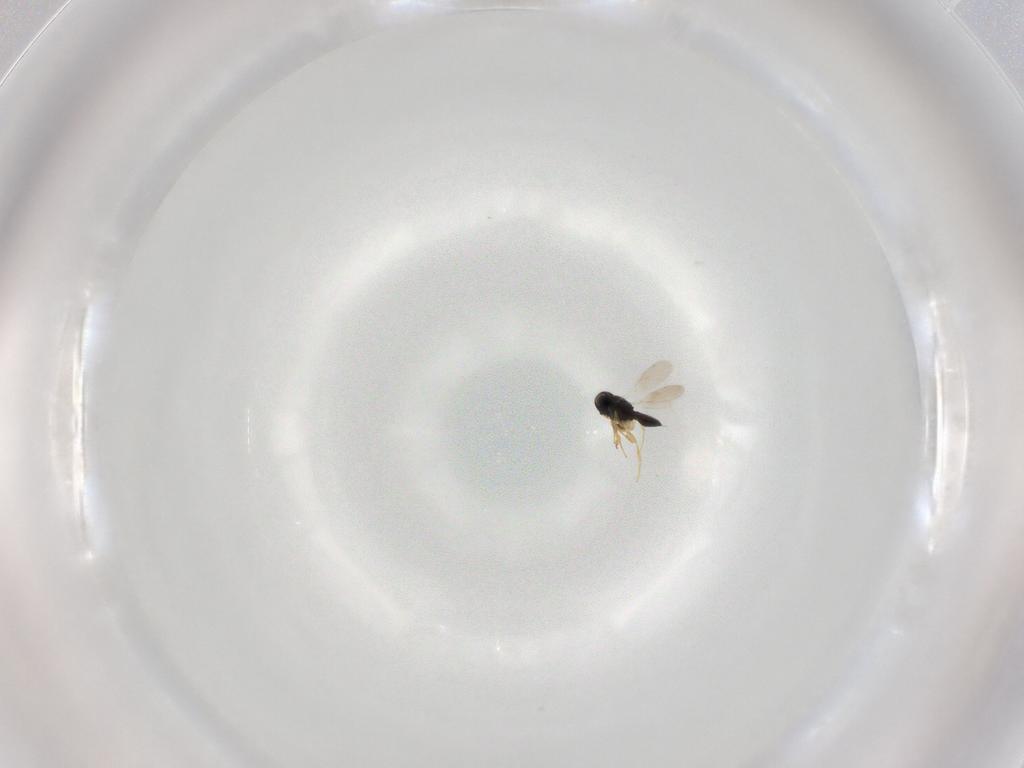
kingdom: Animalia
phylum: Arthropoda
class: Insecta
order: Hymenoptera
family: Scelionidae
